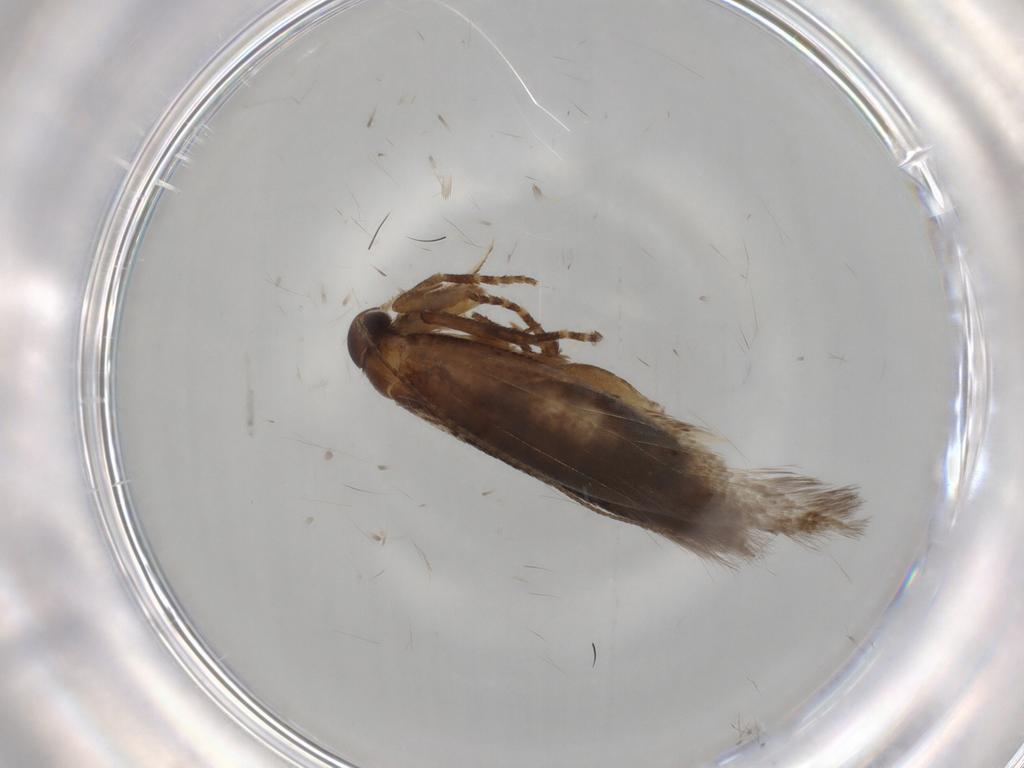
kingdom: Animalia
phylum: Arthropoda
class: Insecta
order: Lepidoptera
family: Gelechiidae
